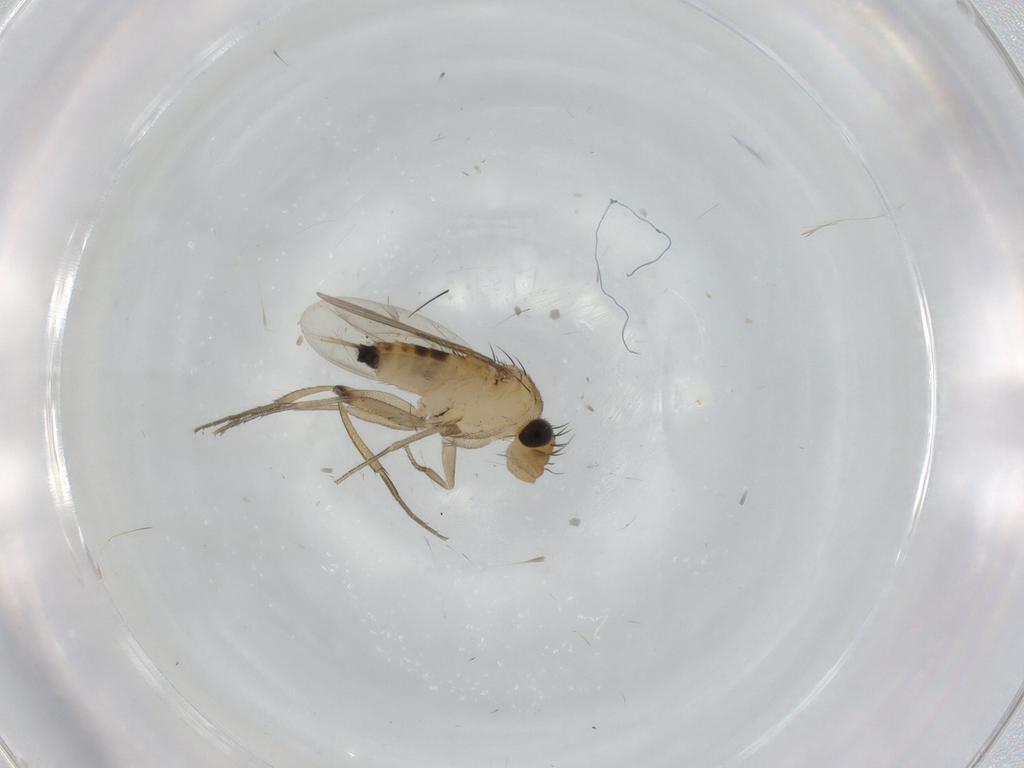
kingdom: Animalia
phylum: Arthropoda
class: Insecta
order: Diptera
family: Phoridae
